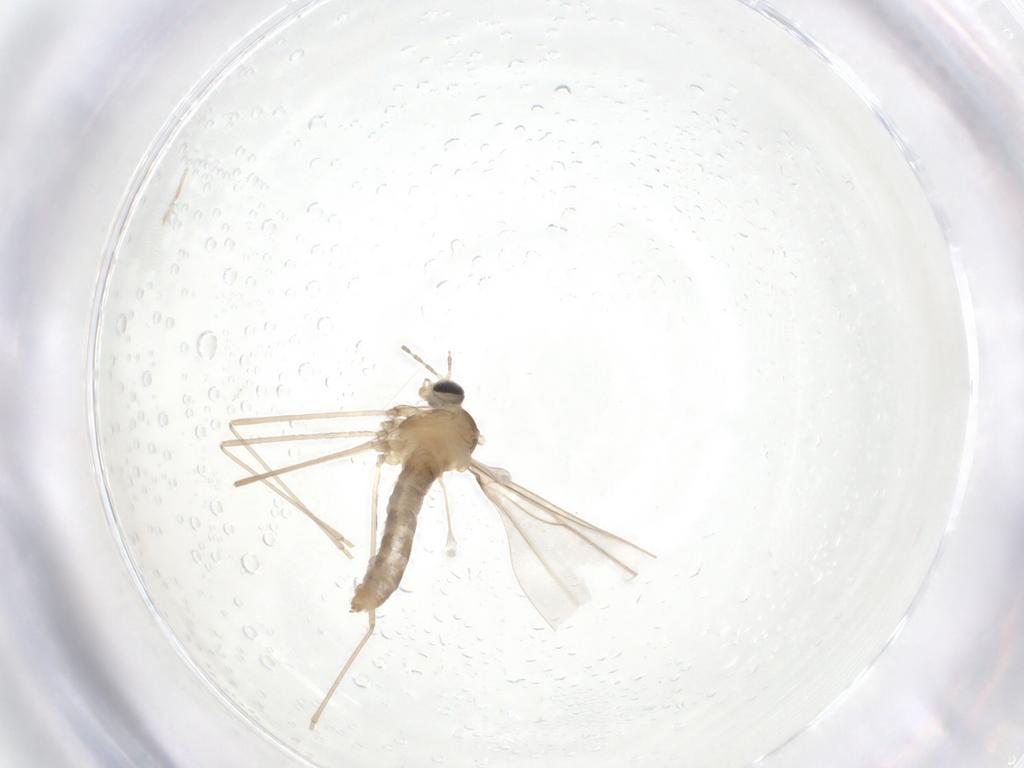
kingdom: Animalia
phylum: Arthropoda
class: Insecta
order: Diptera
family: Cecidomyiidae
